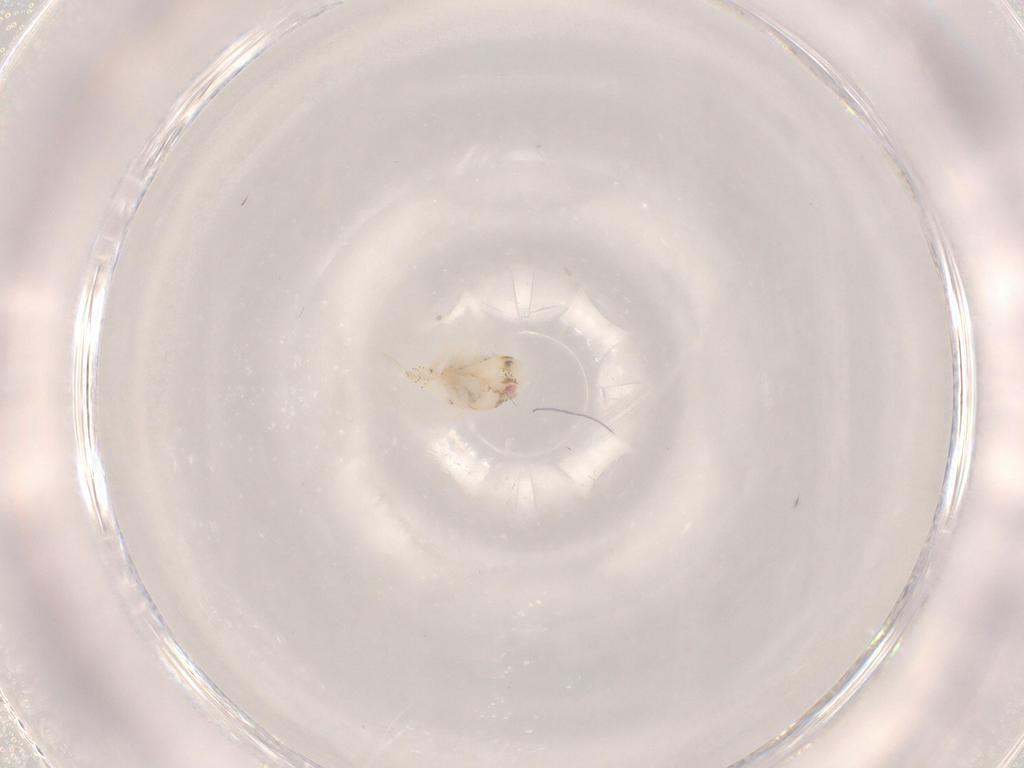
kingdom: Animalia
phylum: Arthropoda
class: Insecta
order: Hemiptera
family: Fulgoroidea_incertae_sedis
